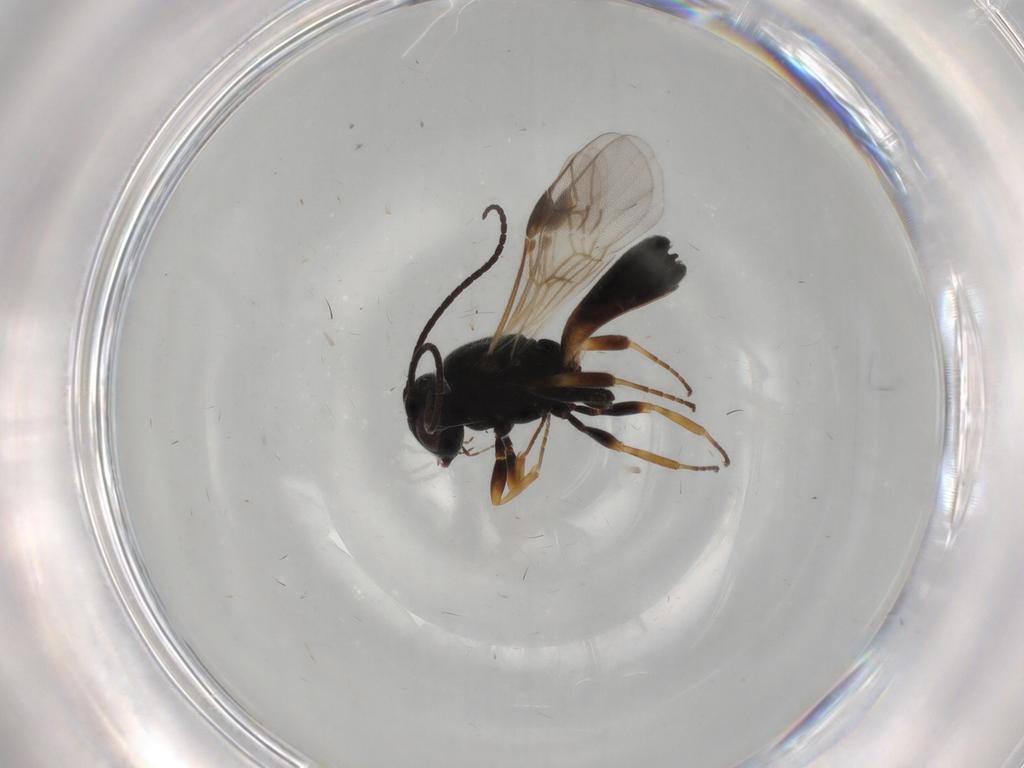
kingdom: Animalia
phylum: Arthropoda
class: Insecta
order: Hymenoptera
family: Braconidae
